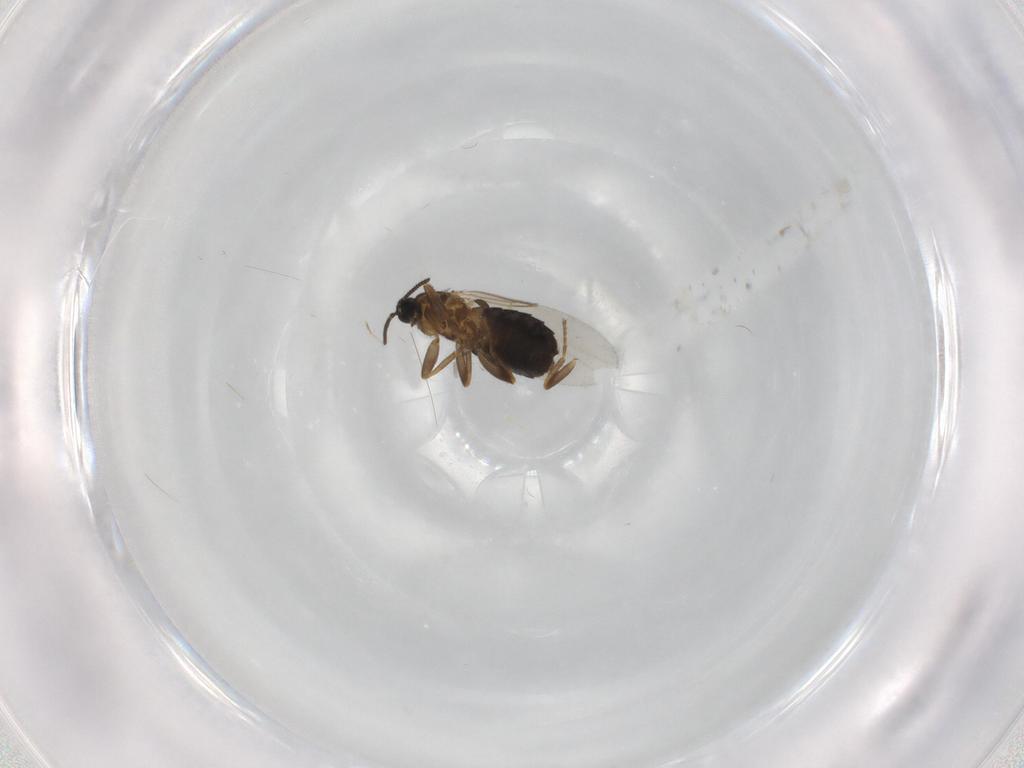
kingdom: Animalia
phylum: Arthropoda
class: Insecta
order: Diptera
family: Scatopsidae
